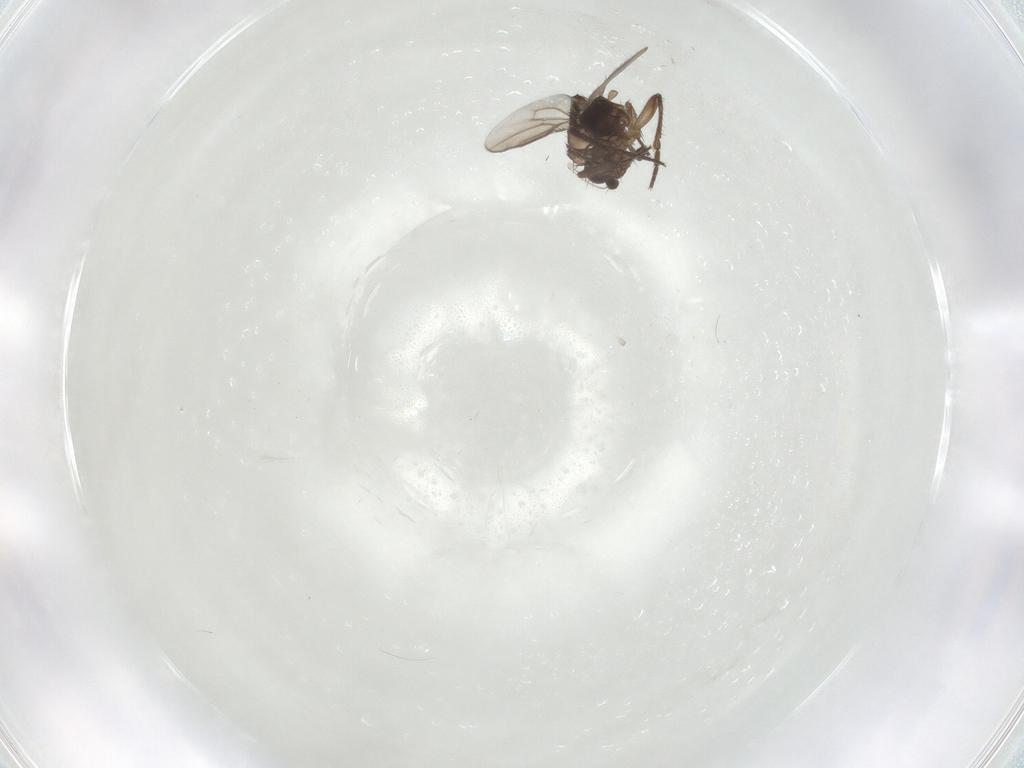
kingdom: Animalia
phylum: Arthropoda
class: Insecta
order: Diptera
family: Sphaeroceridae
